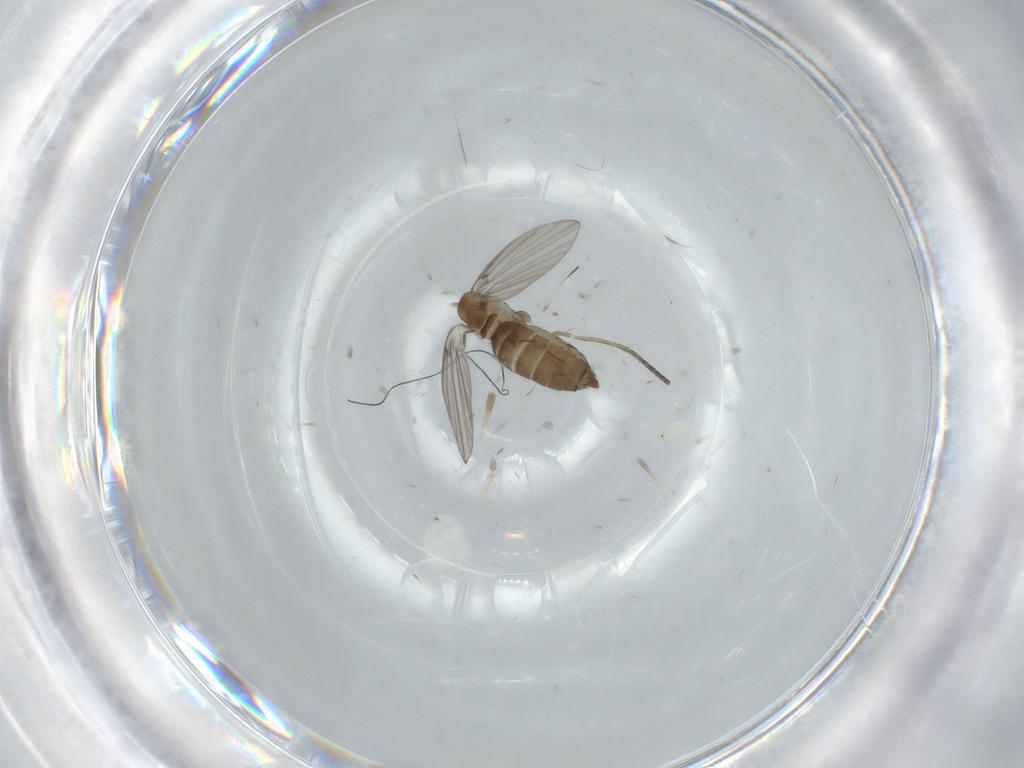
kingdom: Animalia
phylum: Arthropoda
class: Insecta
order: Diptera
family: Therevidae
